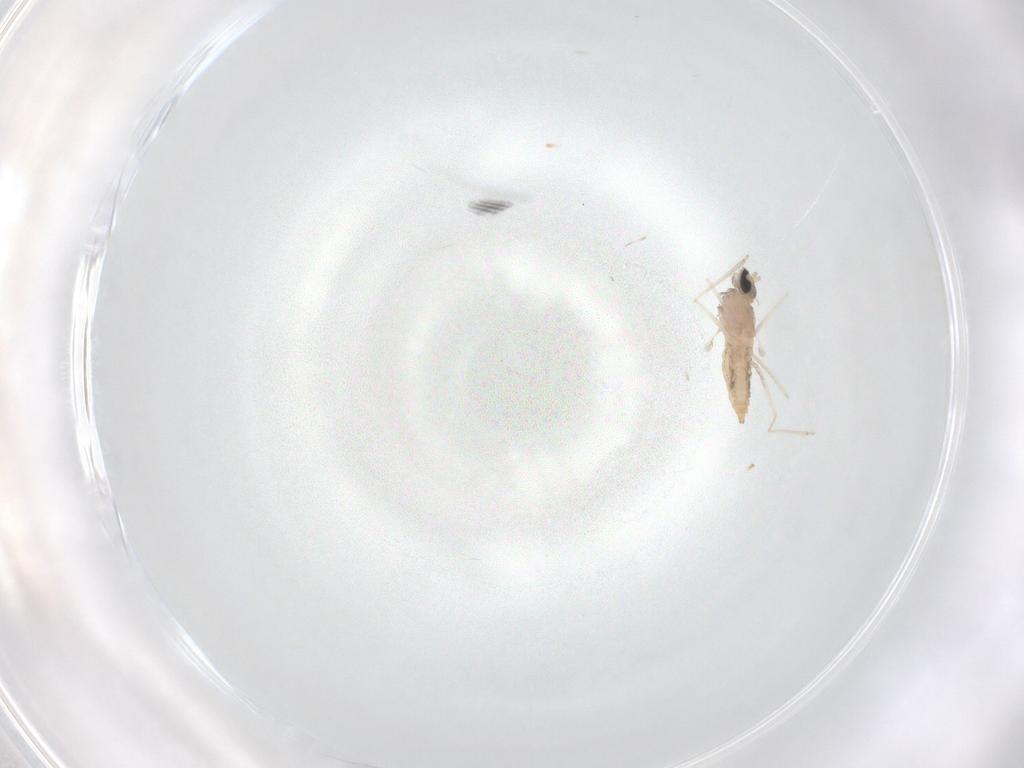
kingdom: Animalia
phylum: Arthropoda
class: Insecta
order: Diptera
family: Cecidomyiidae
